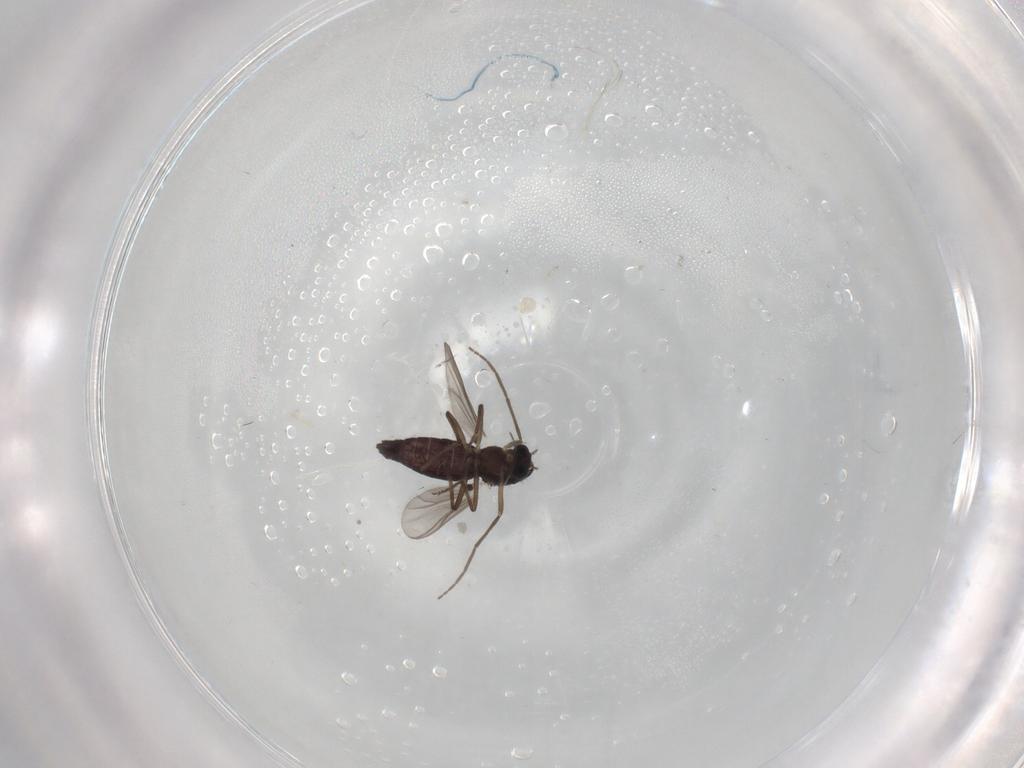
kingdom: Animalia
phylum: Arthropoda
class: Insecta
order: Diptera
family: Chironomidae
